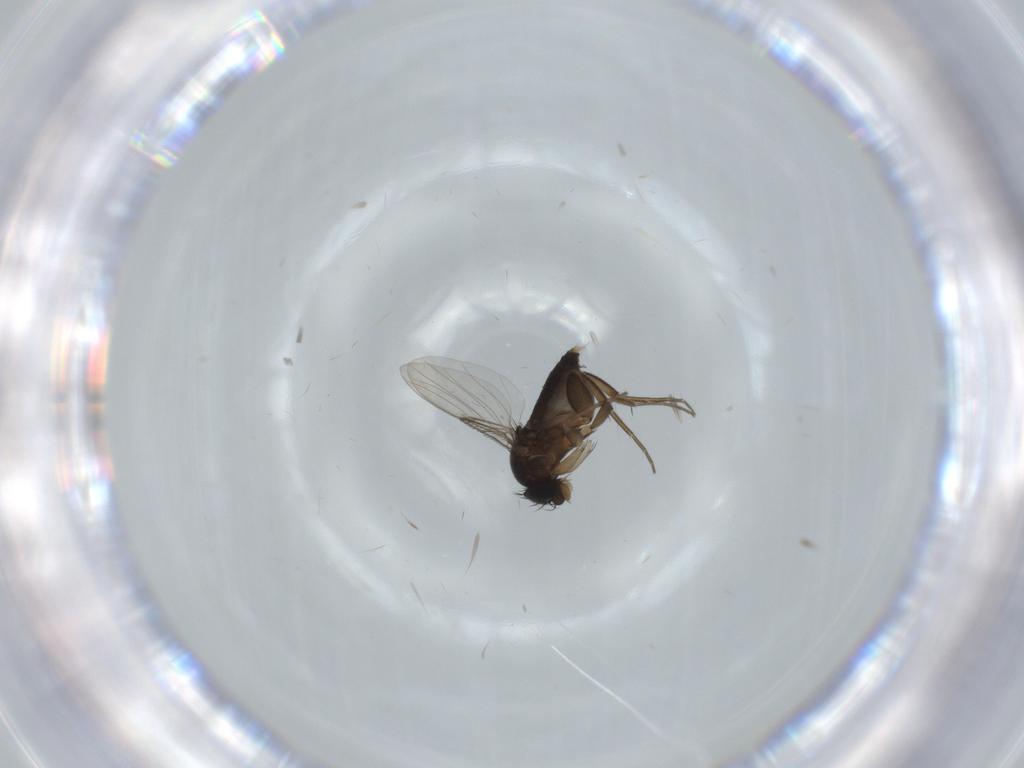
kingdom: Animalia
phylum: Arthropoda
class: Insecta
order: Diptera
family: Phoridae
